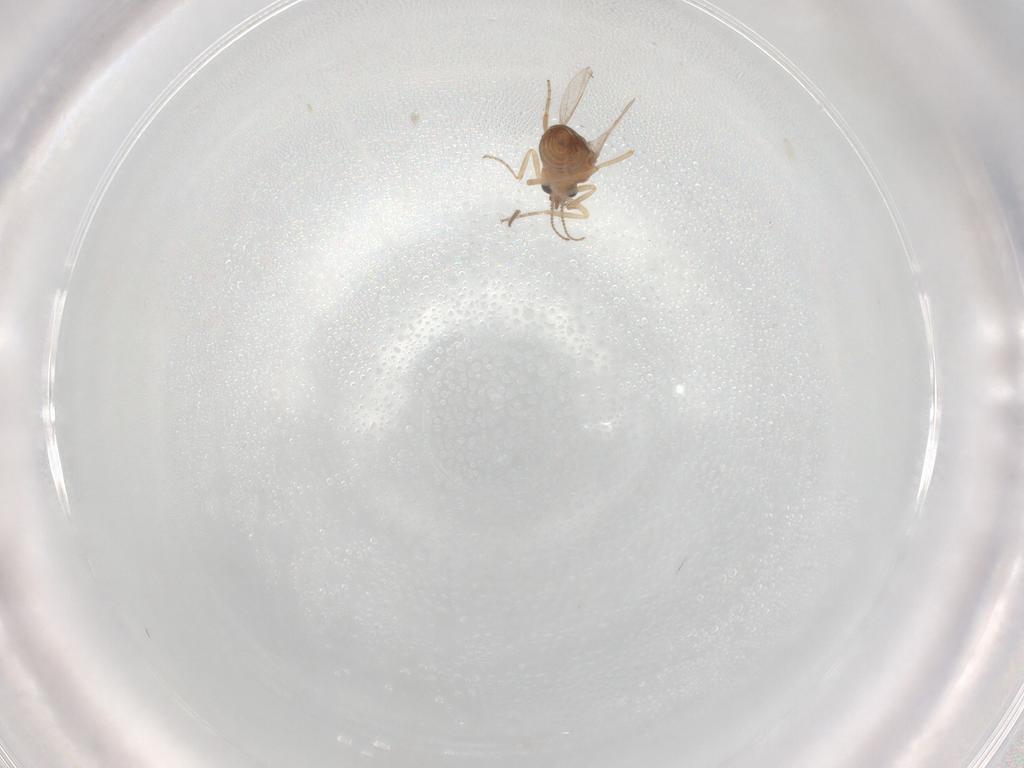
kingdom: Animalia
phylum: Arthropoda
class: Insecta
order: Diptera
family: Ceratopogonidae
